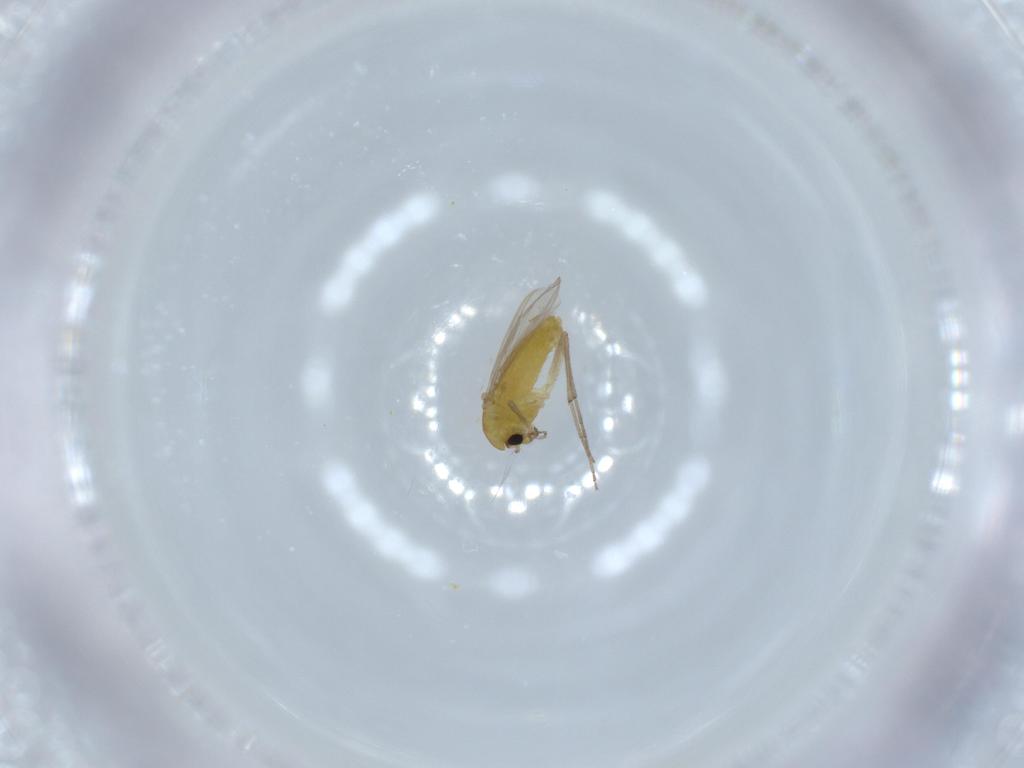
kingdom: Animalia
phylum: Arthropoda
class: Insecta
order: Diptera
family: Chironomidae
